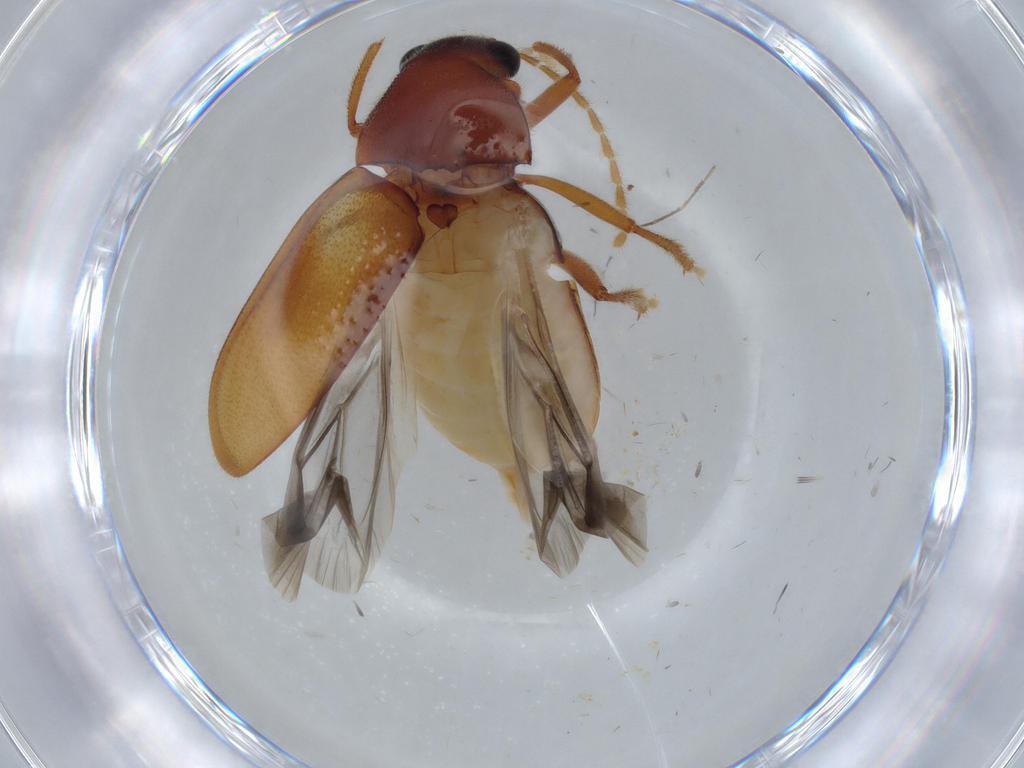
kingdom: Animalia
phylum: Arthropoda
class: Insecta
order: Coleoptera
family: Ptilodactylidae
